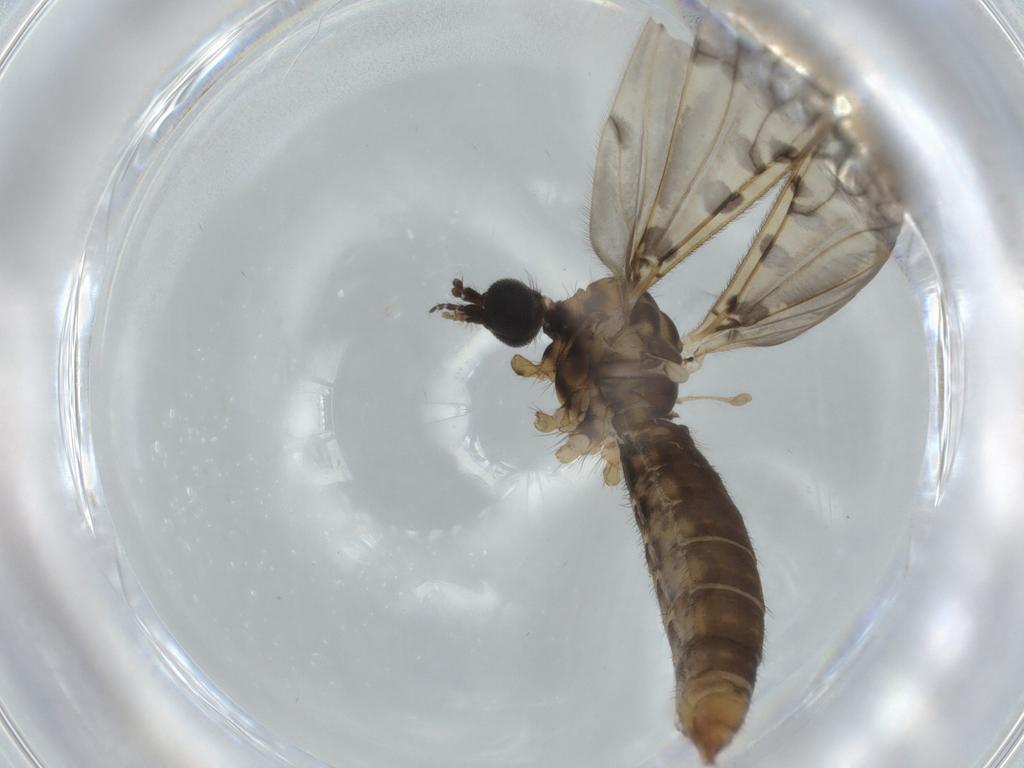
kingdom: Animalia
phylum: Arthropoda
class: Insecta
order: Diptera
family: Limoniidae
